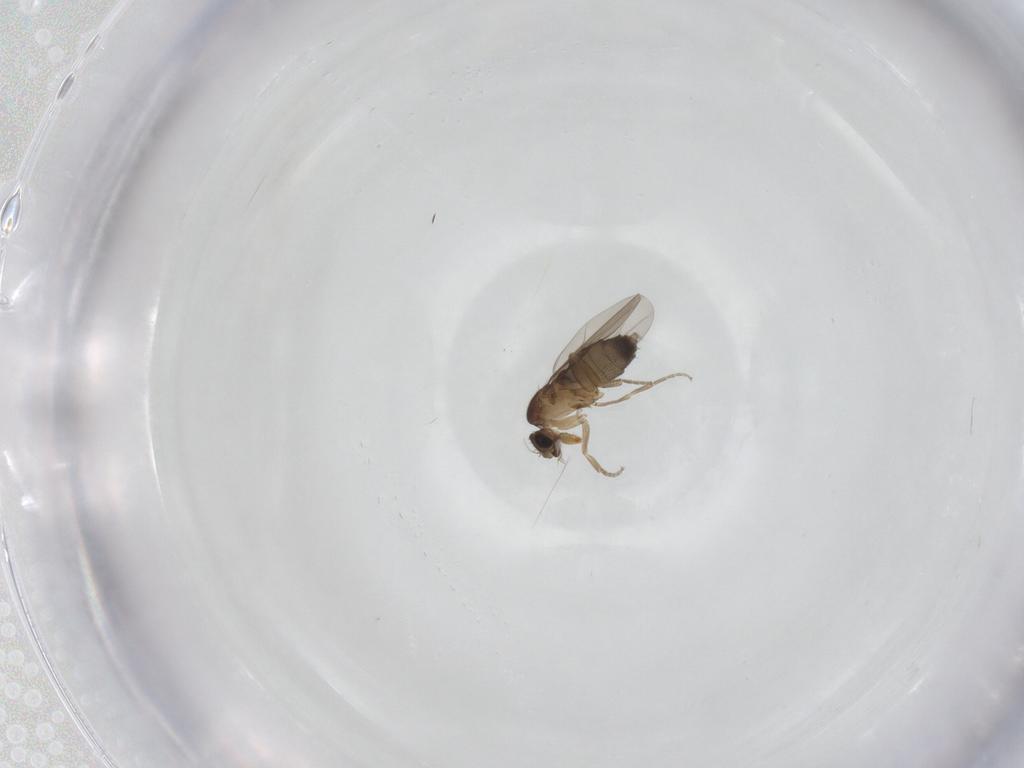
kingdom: Animalia
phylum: Arthropoda
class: Insecta
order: Diptera
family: Phoridae
